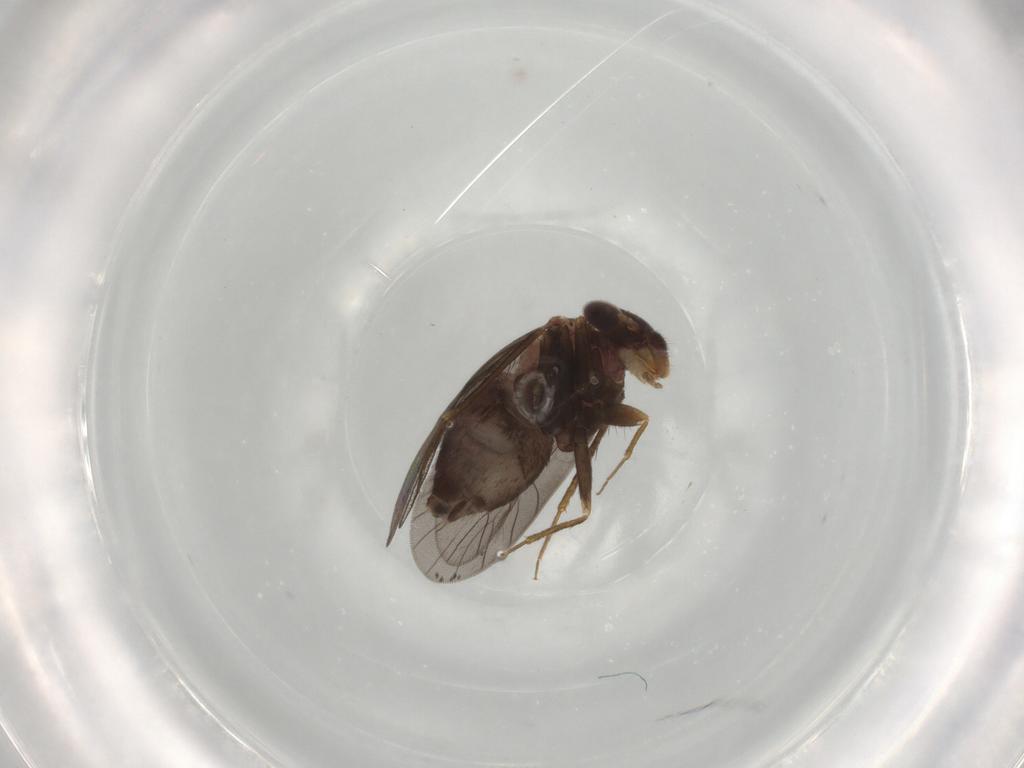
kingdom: Animalia
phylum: Arthropoda
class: Insecta
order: Psocodea
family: Lepidopsocidae
